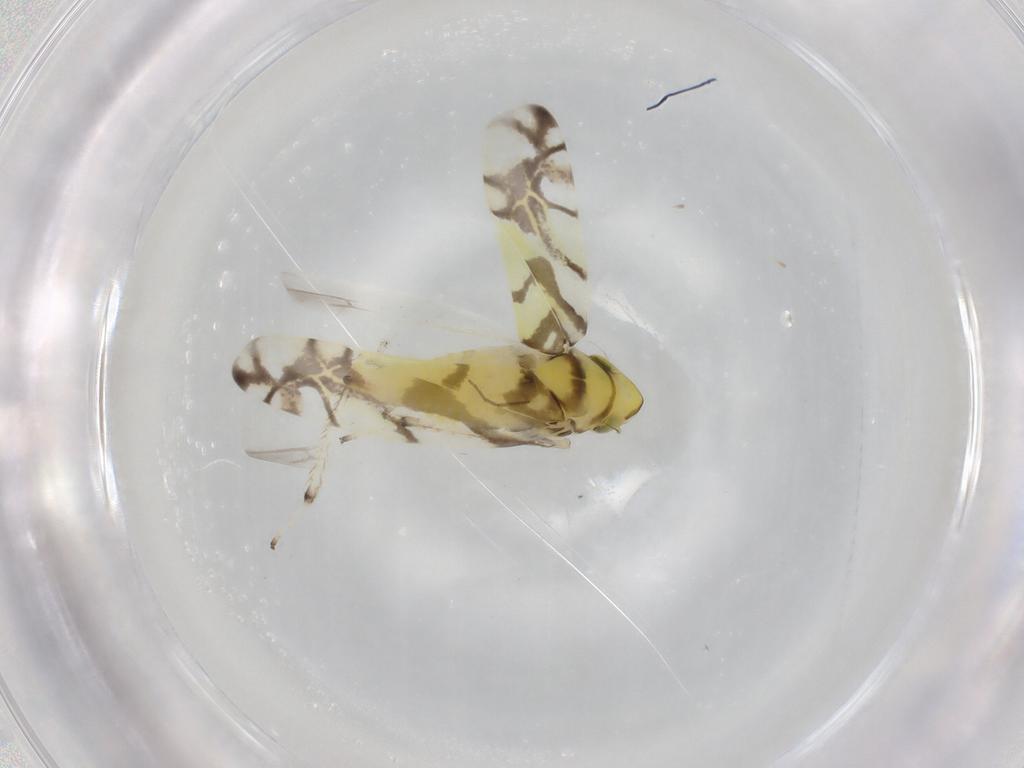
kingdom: Animalia
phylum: Arthropoda
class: Insecta
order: Hemiptera
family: Cicadellidae
